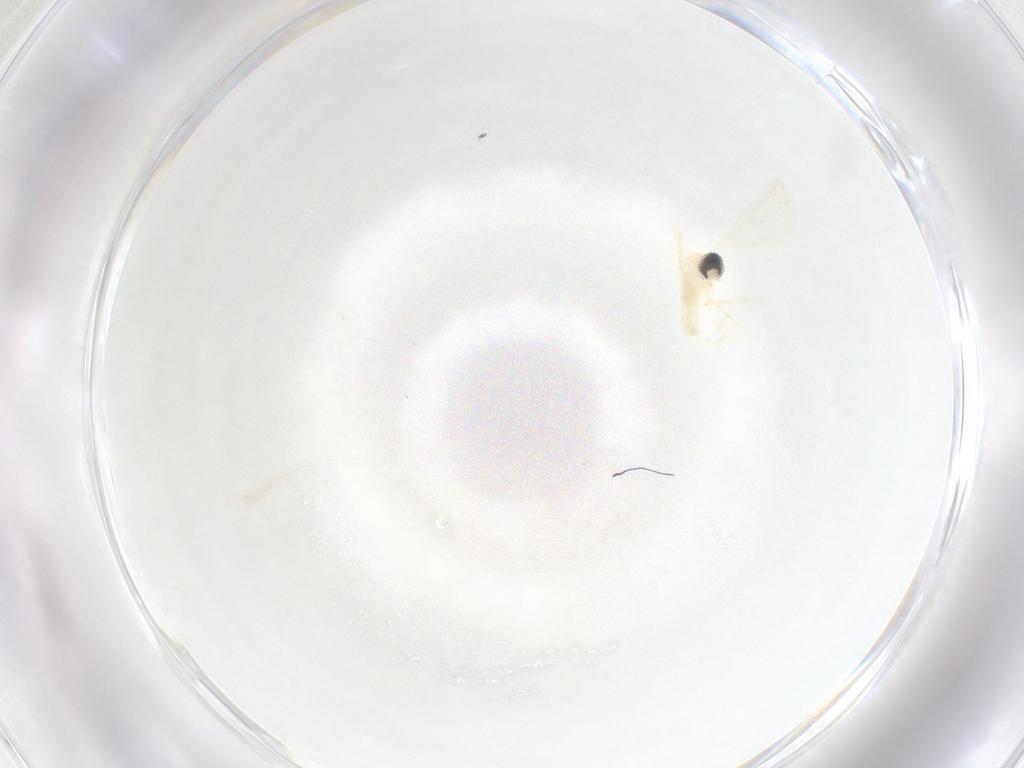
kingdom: Animalia
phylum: Arthropoda
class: Insecta
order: Diptera
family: Cecidomyiidae
